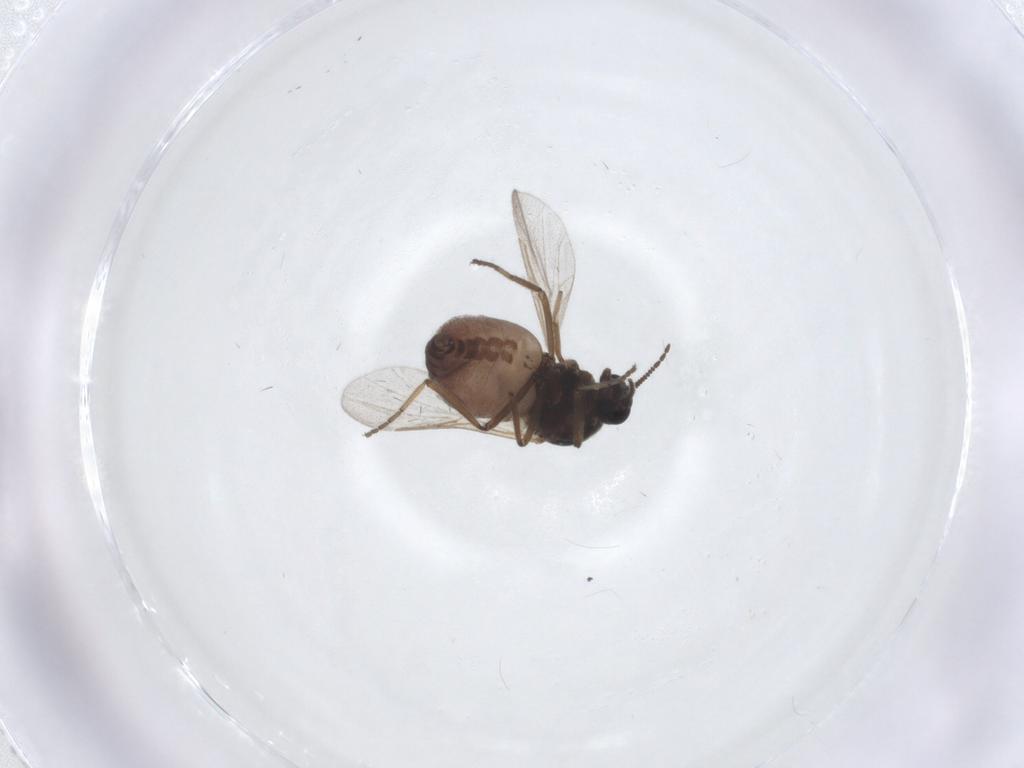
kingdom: Animalia
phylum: Arthropoda
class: Insecta
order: Diptera
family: Ceratopogonidae
